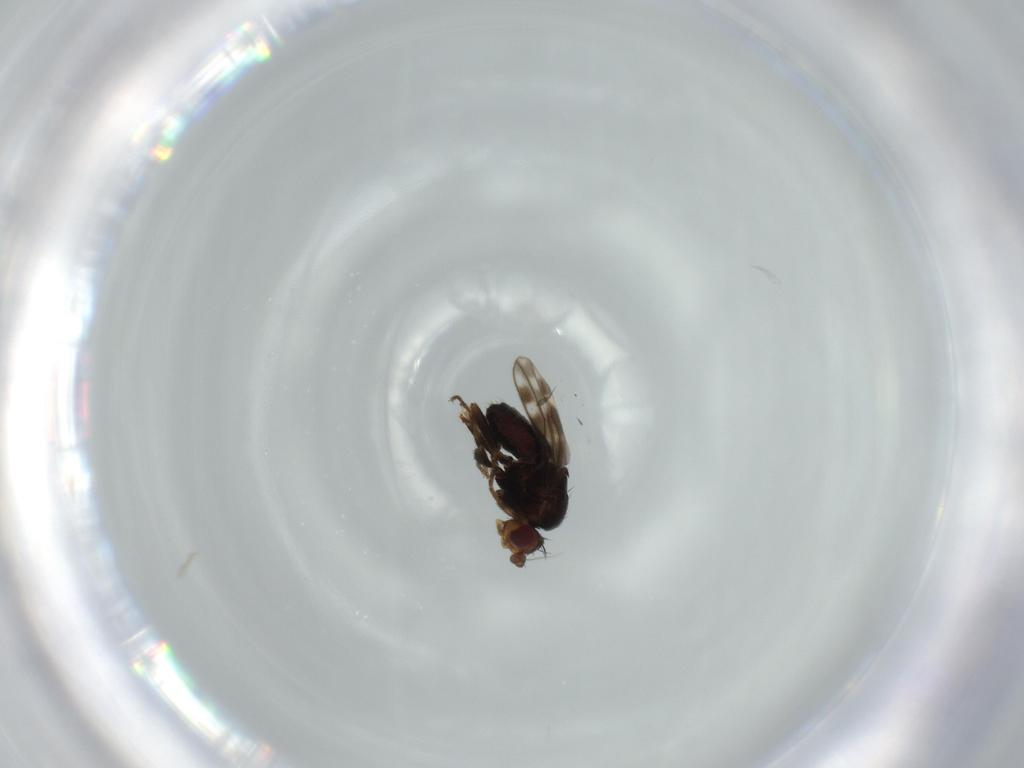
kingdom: Animalia
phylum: Arthropoda
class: Insecta
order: Diptera
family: Sphaeroceridae
